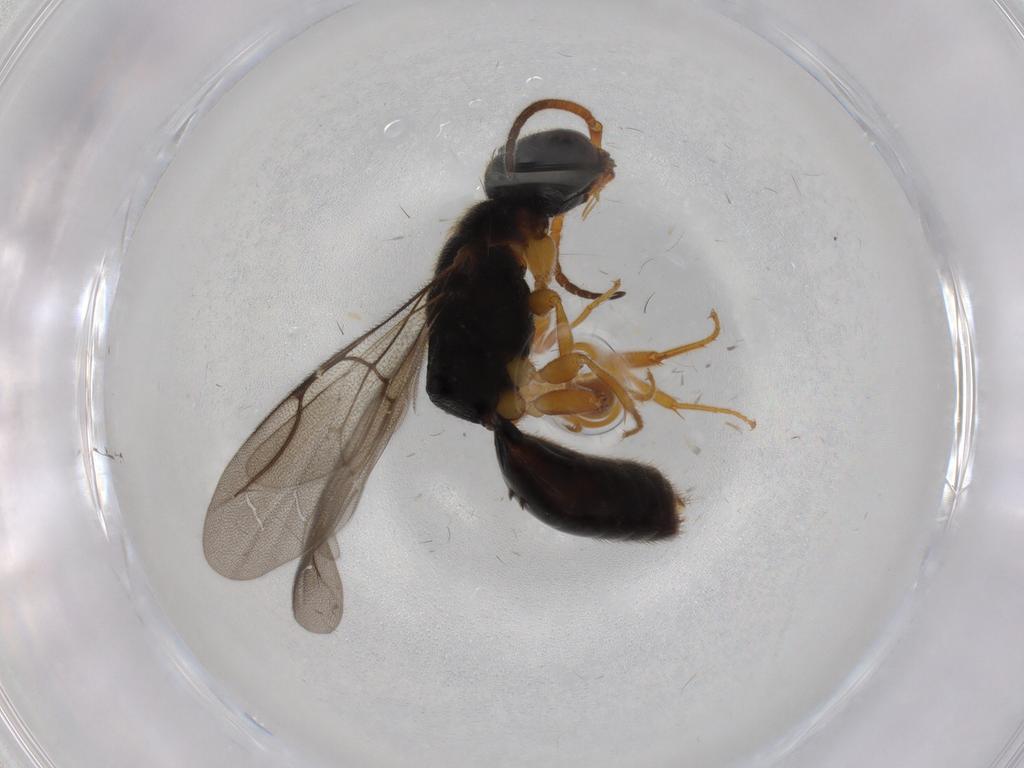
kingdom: Animalia
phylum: Arthropoda
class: Insecta
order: Hymenoptera
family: Bethylidae
